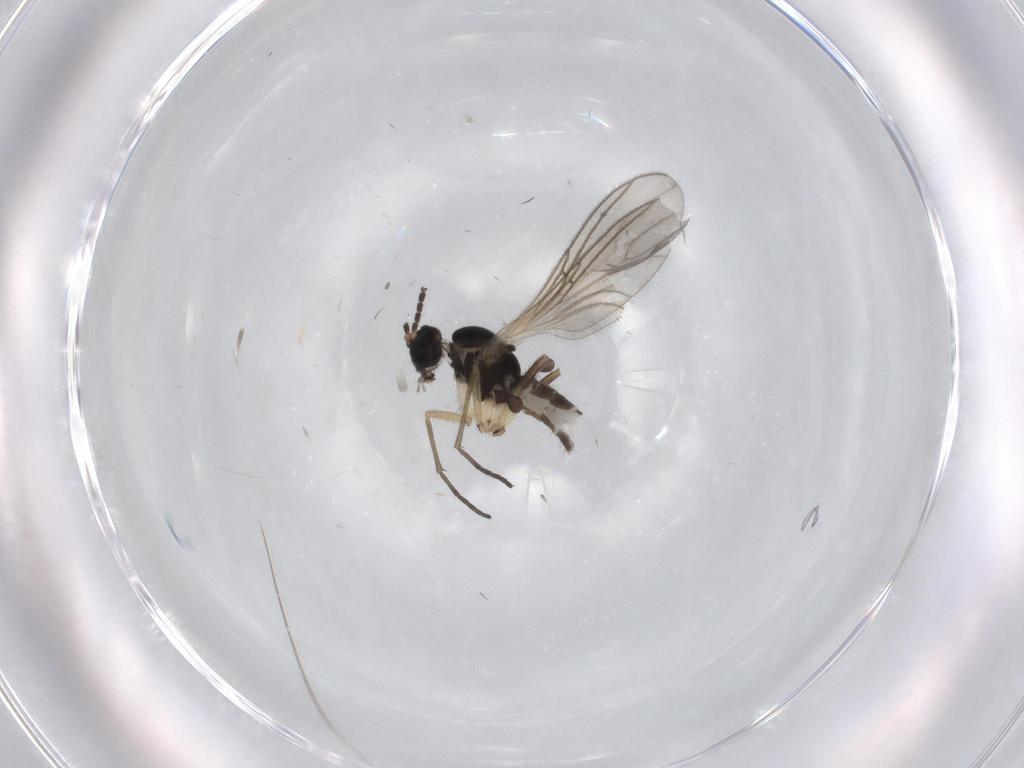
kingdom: Animalia
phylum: Arthropoda
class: Insecta
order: Diptera
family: Sciaridae
